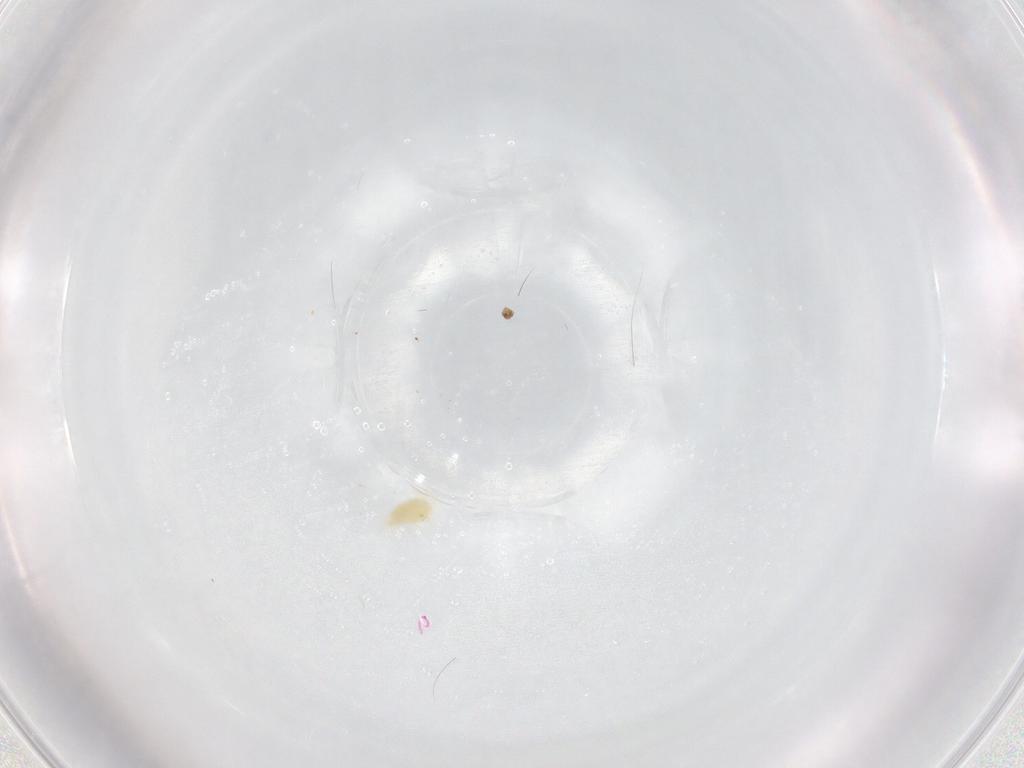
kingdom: Animalia
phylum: Arthropoda
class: Arachnida
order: Trombidiformes
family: Stigmaeidae
